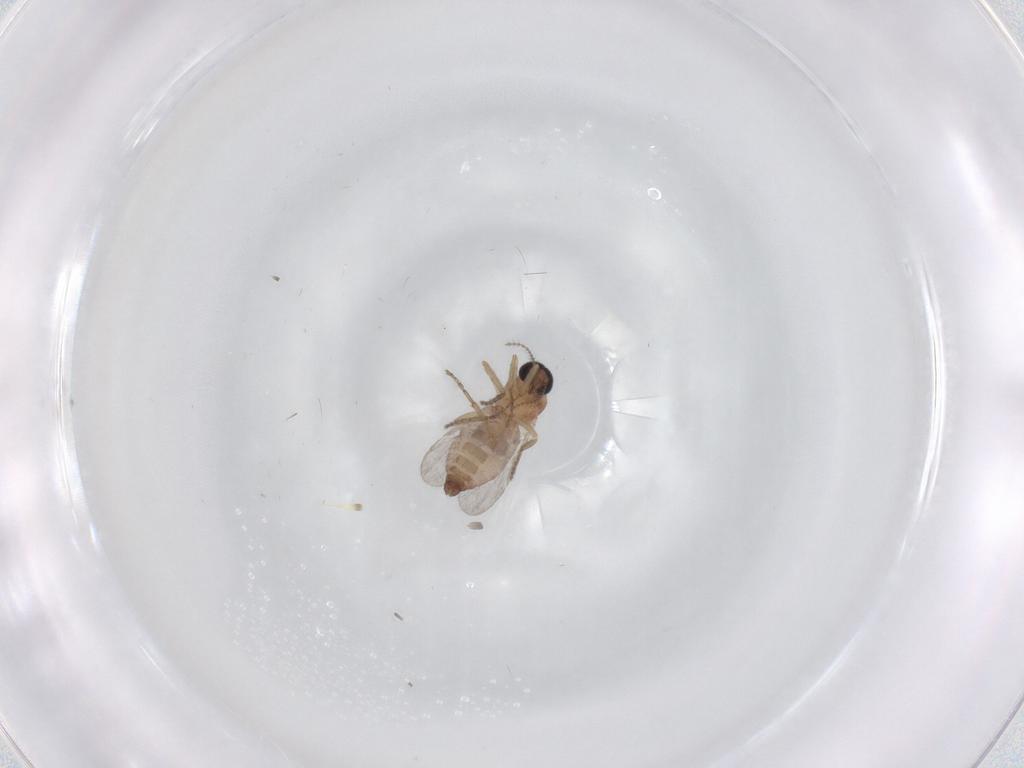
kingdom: Animalia
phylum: Arthropoda
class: Insecta
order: Diptera
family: Ceratopogonidae
